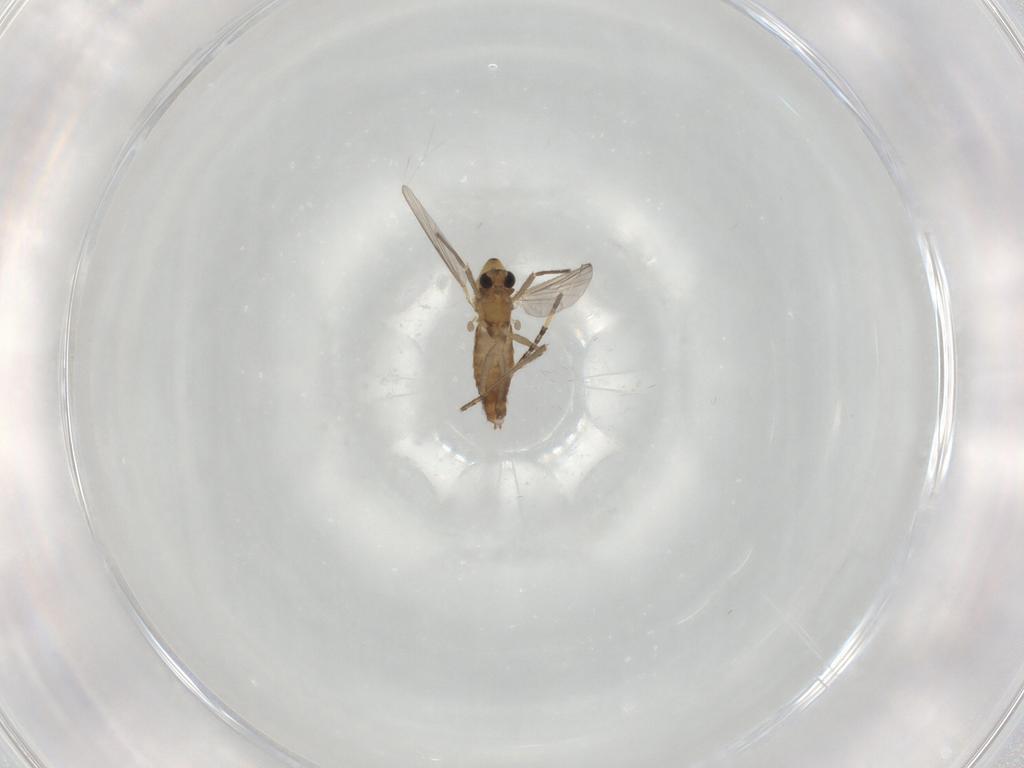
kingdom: Animalia
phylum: Arthropoda
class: Insecta
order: Diptera
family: Chironomidae
